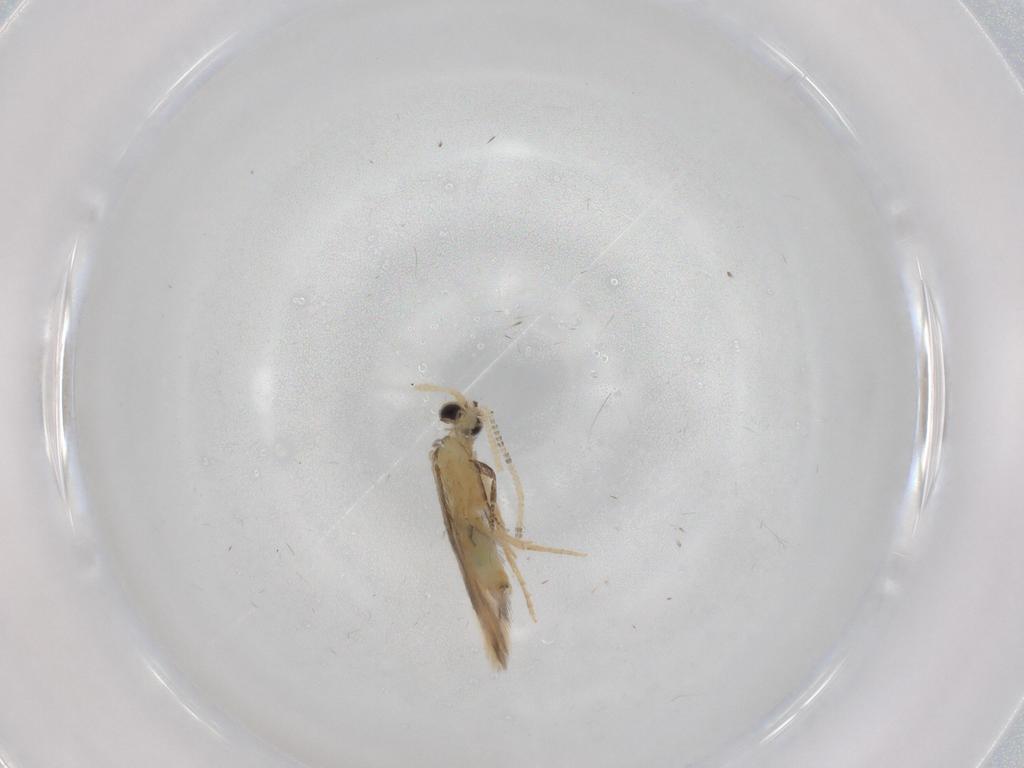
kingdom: Animalia
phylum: Arthropoda
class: Insecta
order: Trichoptera
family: Hydroptilidae
